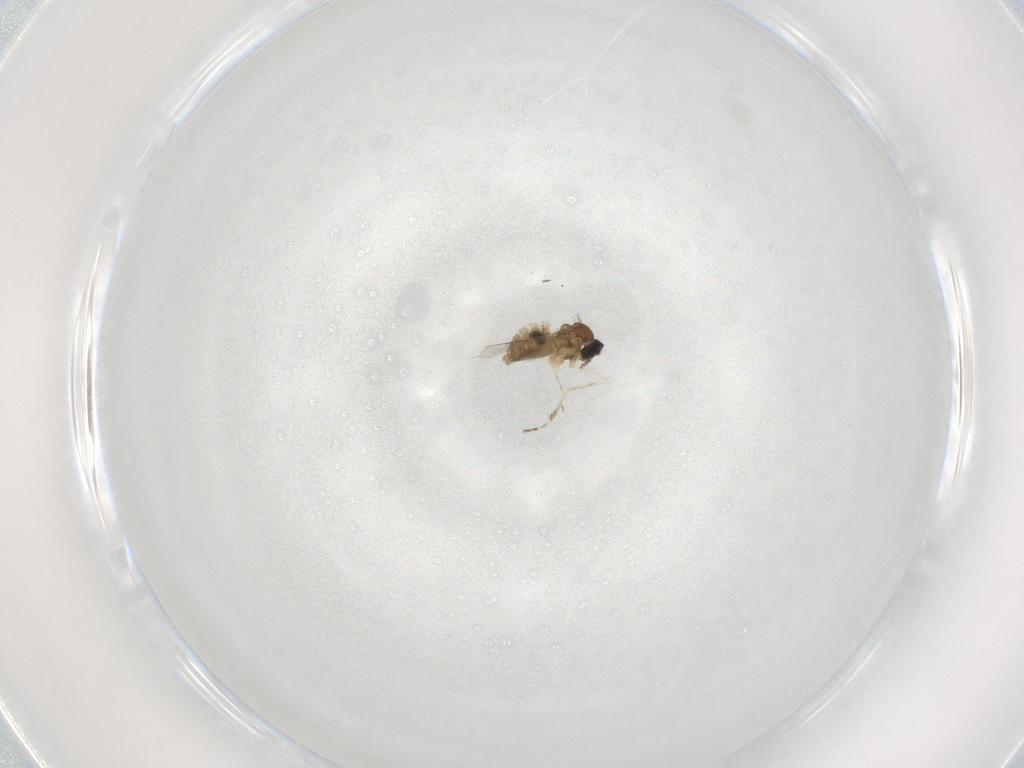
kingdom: Animalia
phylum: Arthropoda
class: Insecta
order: Diptera
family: Cecidomyiidae
